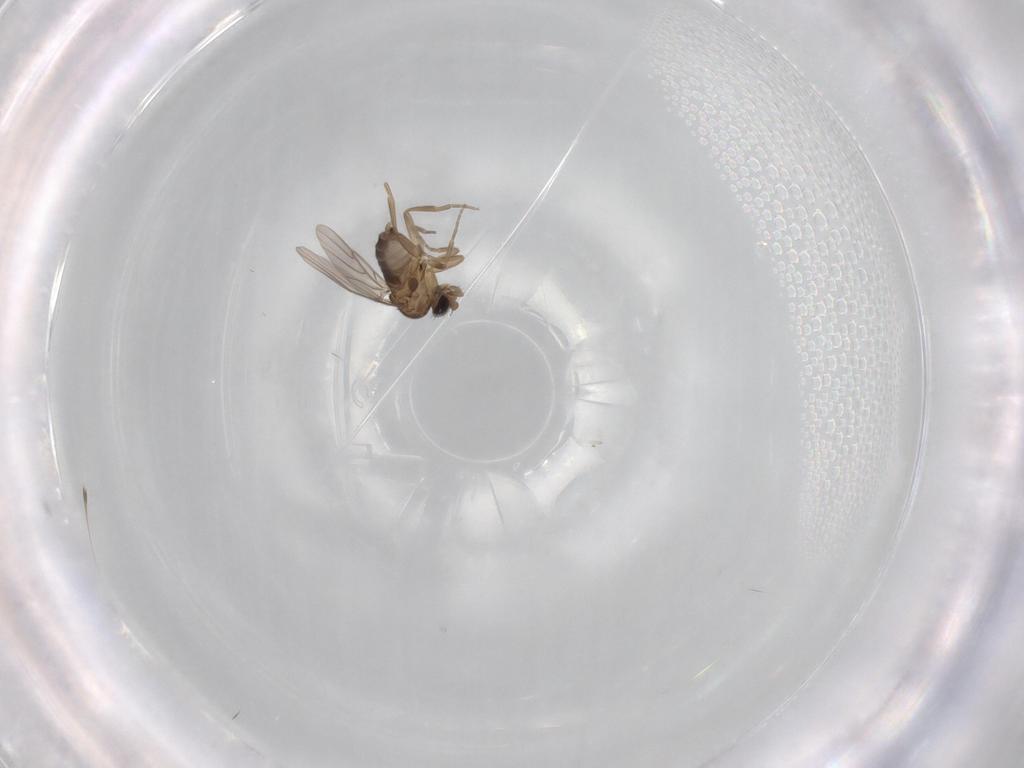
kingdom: Animalia
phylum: Arthropoda
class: Insecta
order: Diptera
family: Phoridae
